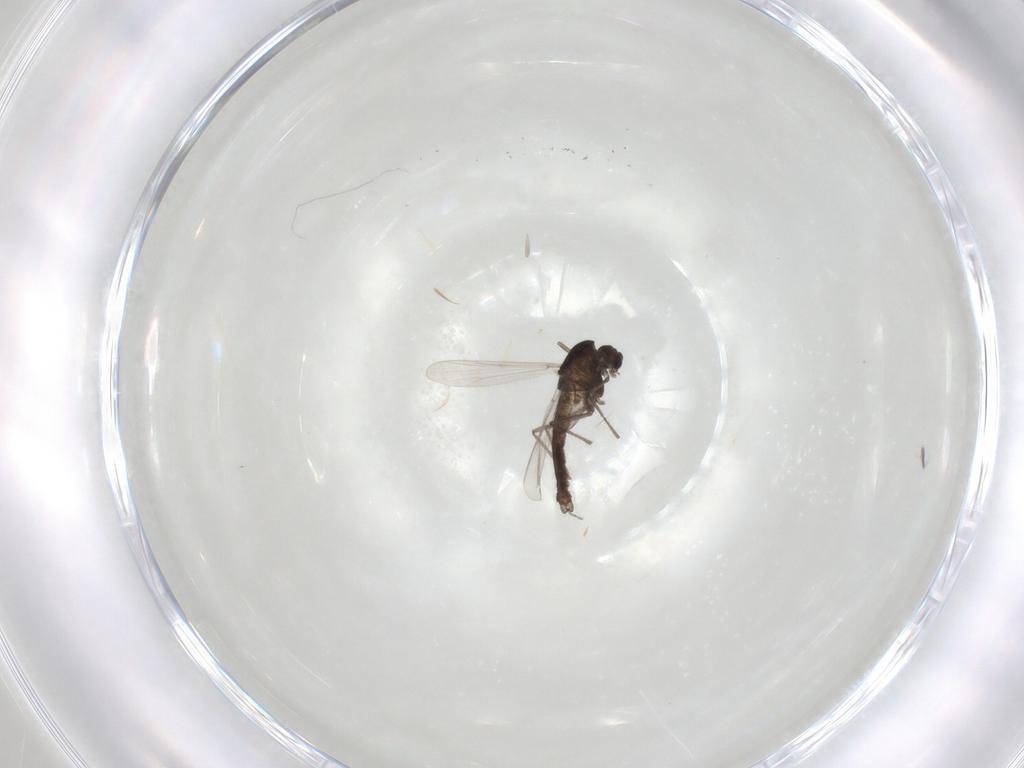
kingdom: Animalia
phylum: Arthropoda
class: Insecta
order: Diptera
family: Chironomidae
